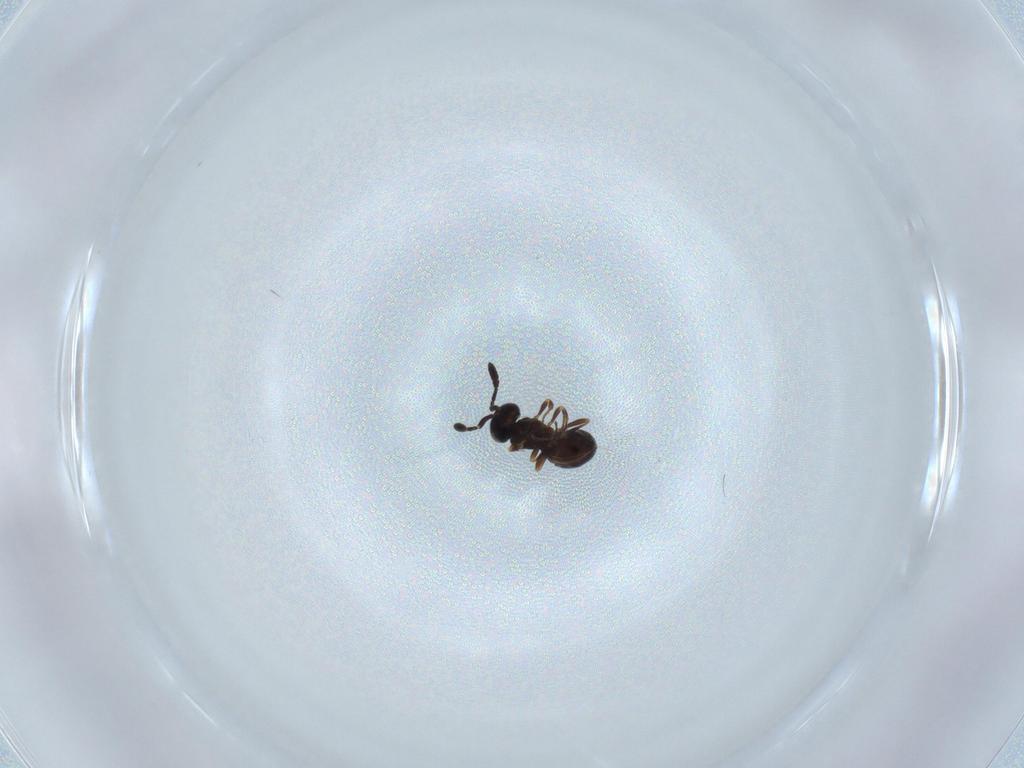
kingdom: Animalia
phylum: Arthropoda
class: Insecta
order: Hymenoptera
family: Scelionidae
